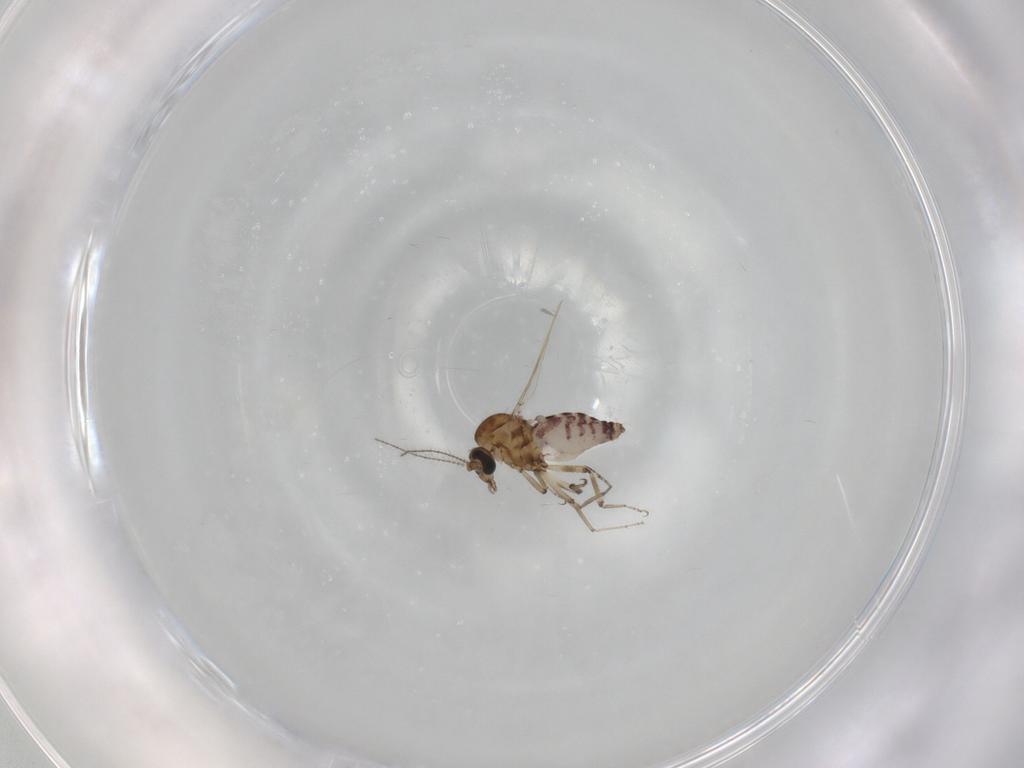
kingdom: Animalia
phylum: Arthropoda
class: Insecta
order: Diptera
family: Ceratopogonidae
